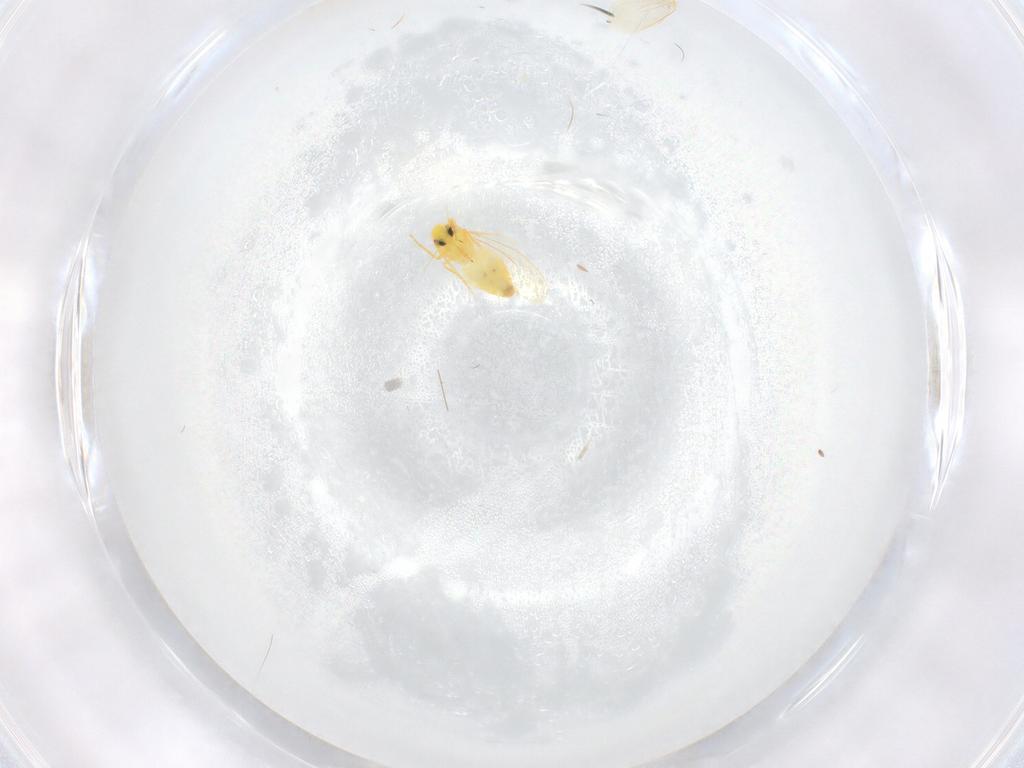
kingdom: Animalia
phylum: Arthropoda
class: Insecta
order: Hemiptera
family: Aleyrodidae
